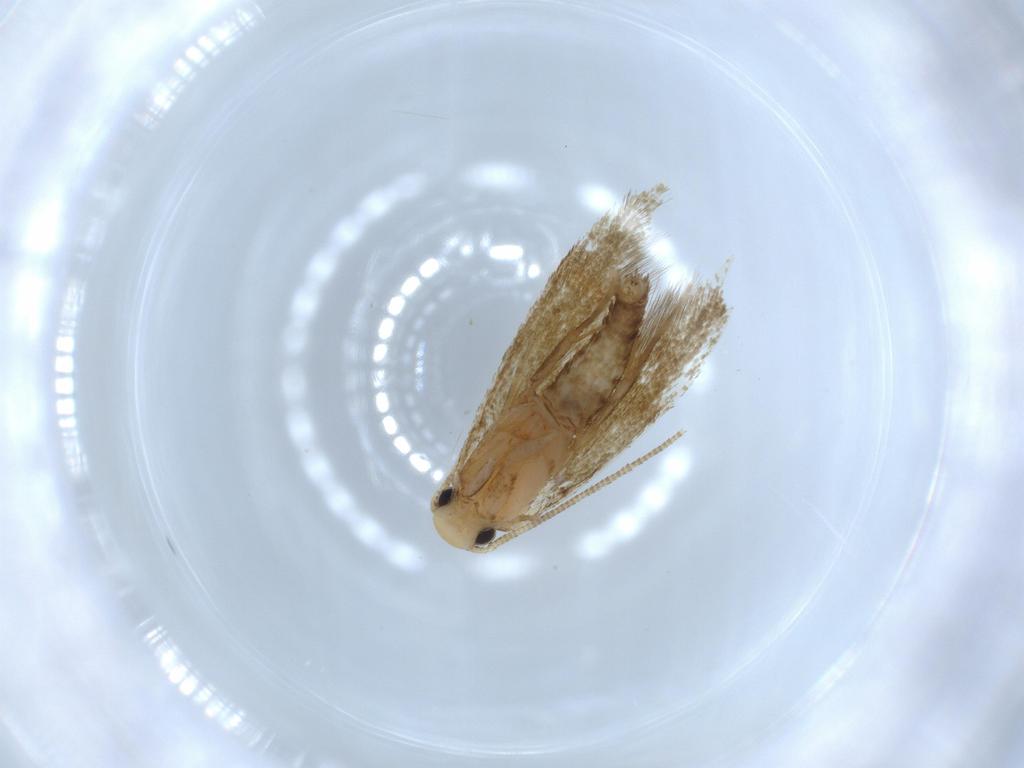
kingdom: Animalia
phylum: Arthropoda
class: Insecta
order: Lepidoptera
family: Tineidae
